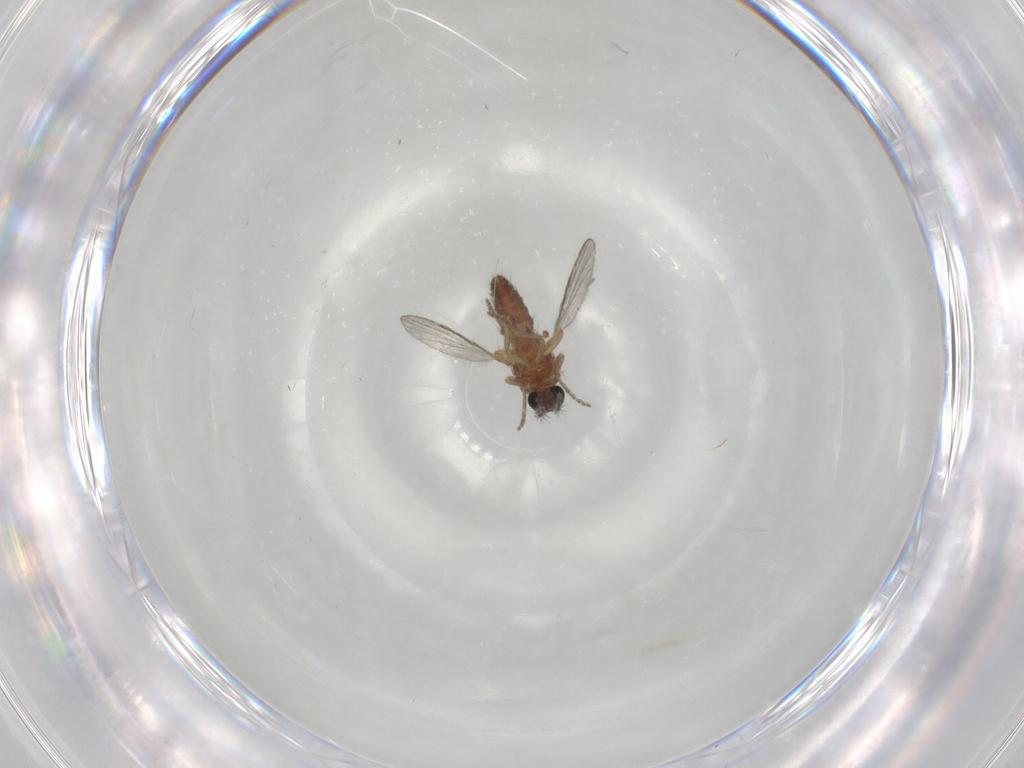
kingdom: Animalia
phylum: Arthropoda
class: Insecta
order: Diptera
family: Ceratopogonidae
